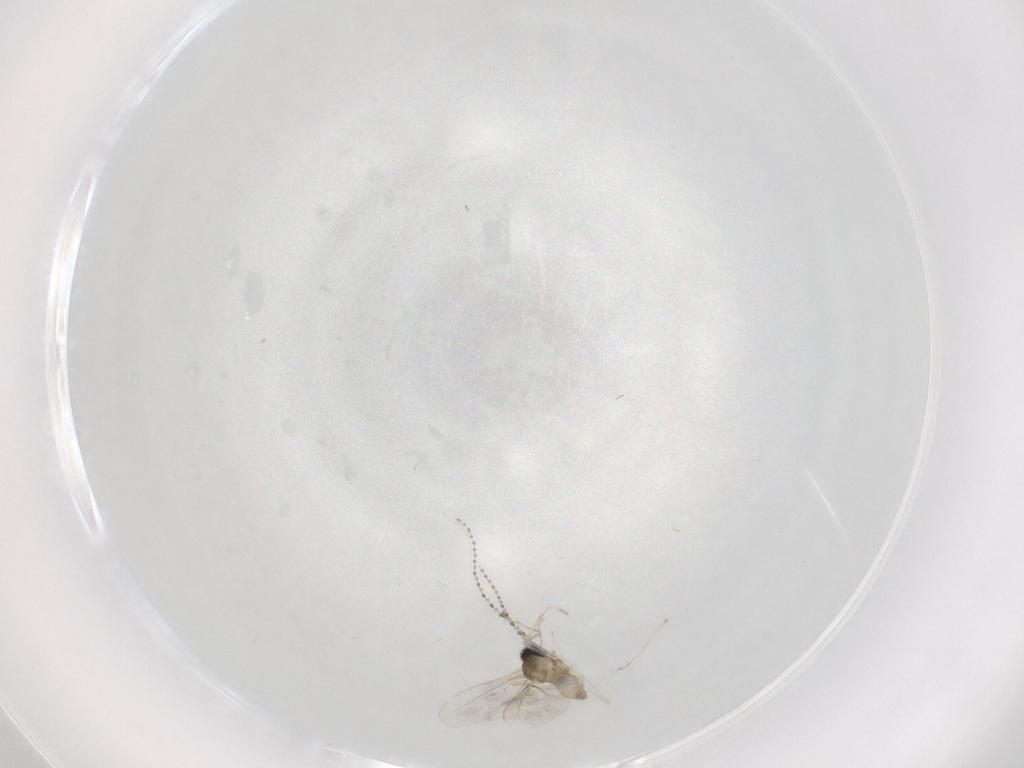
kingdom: Animalia
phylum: Arthropoda
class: Insecta
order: Diptera
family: Cecidomyiidae
